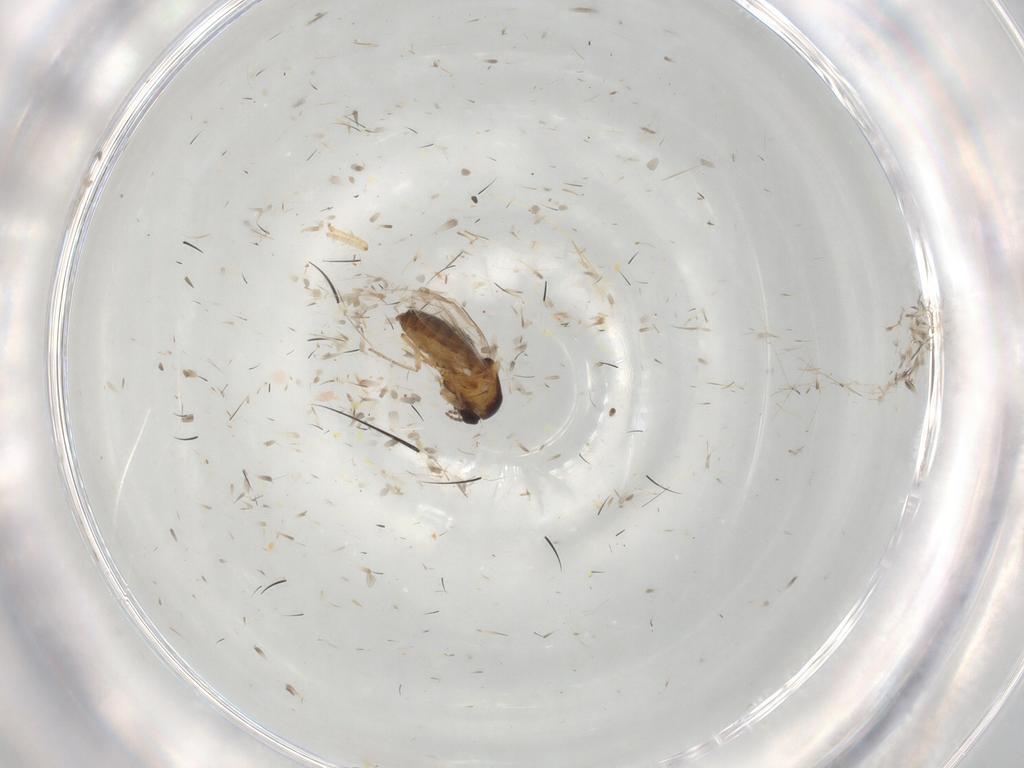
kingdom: Animalia
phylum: Arthropoda
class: Insecta
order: Diptera
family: Ceratopogonidae
